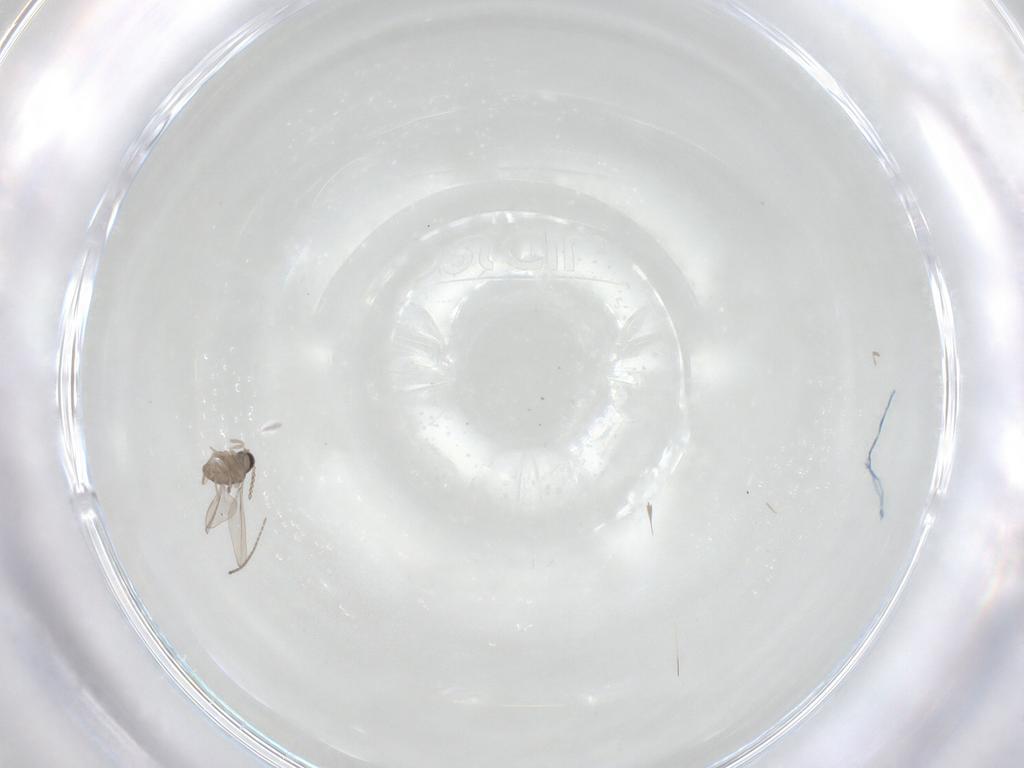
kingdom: Animalia
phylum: Arthropoda
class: Insecta
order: Diptera
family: Cecidomyiidae
